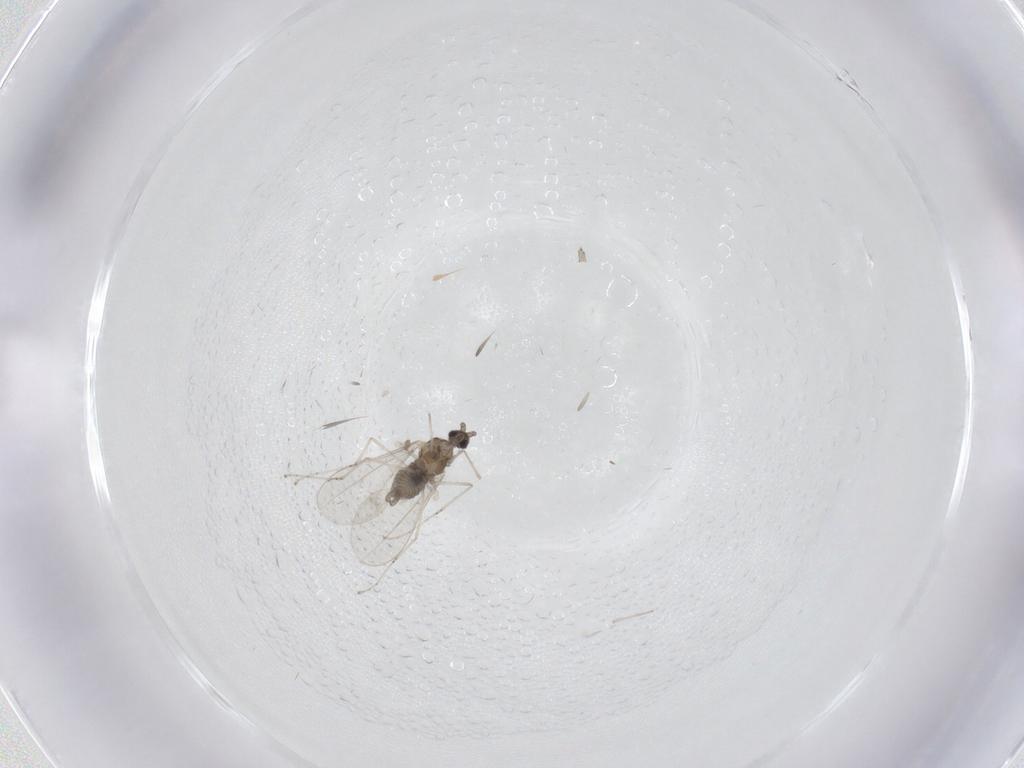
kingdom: Animalia
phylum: Arthropoda
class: Insecta
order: Diptera
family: Cecidomyiidae
